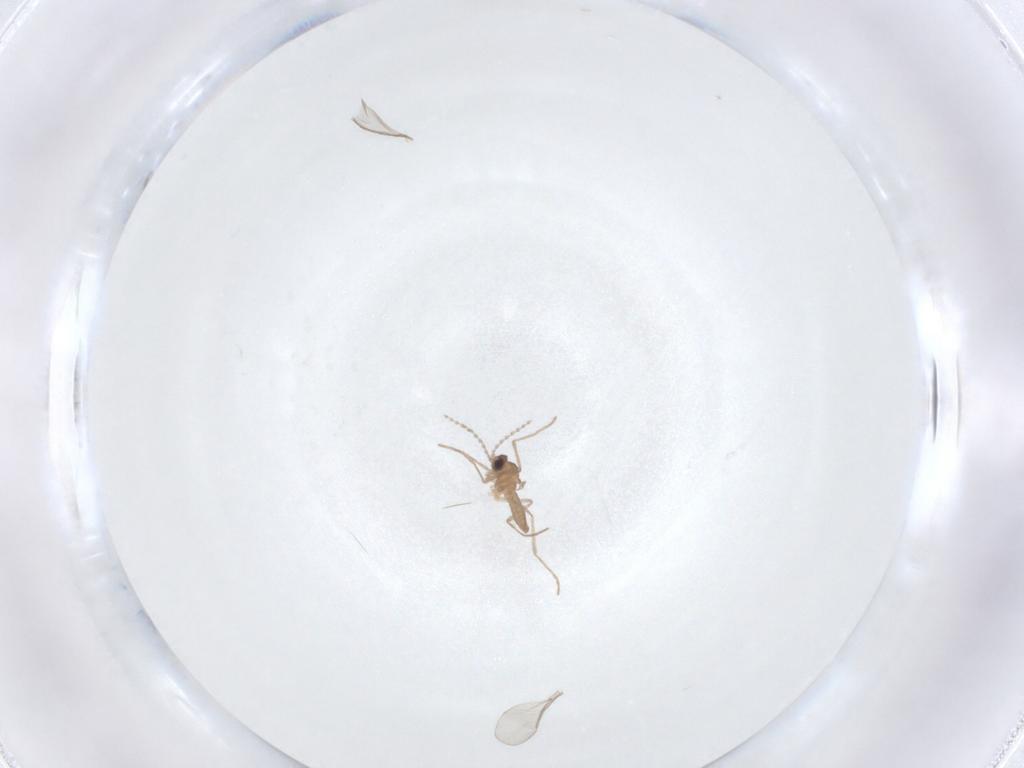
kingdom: Animalia
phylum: Arthropoda
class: Insecta
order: Diptera
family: Cecidomyiidae
